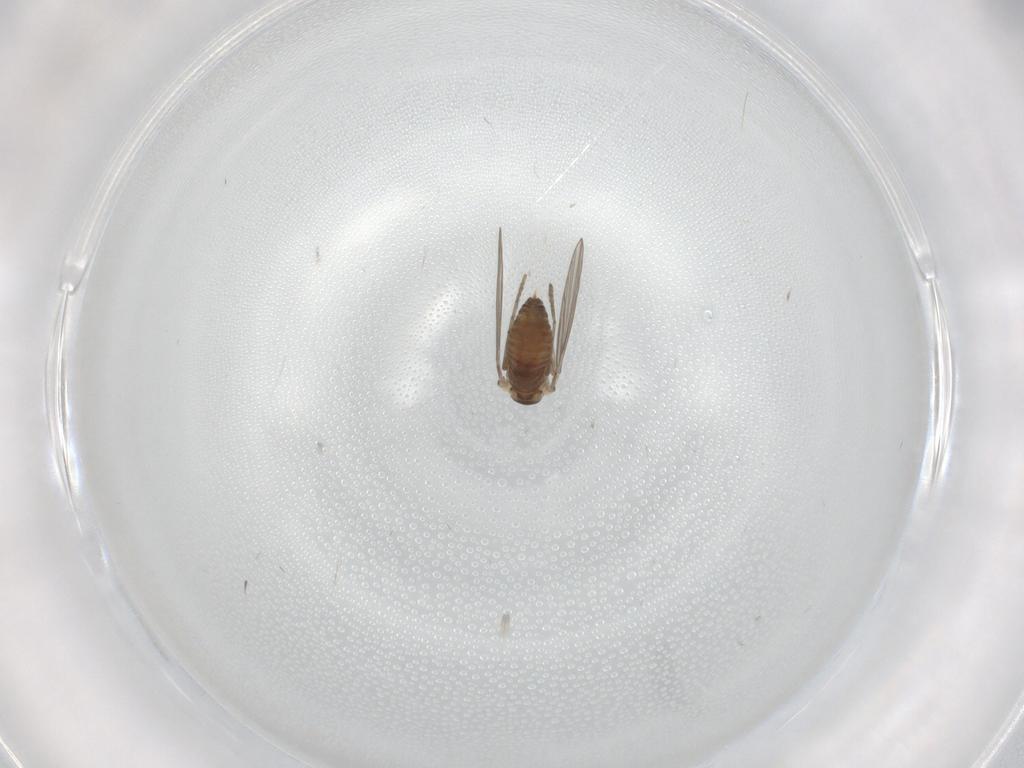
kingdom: Animalia
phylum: Arthropoda
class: Insecta
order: Diptera
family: Psychodidae
